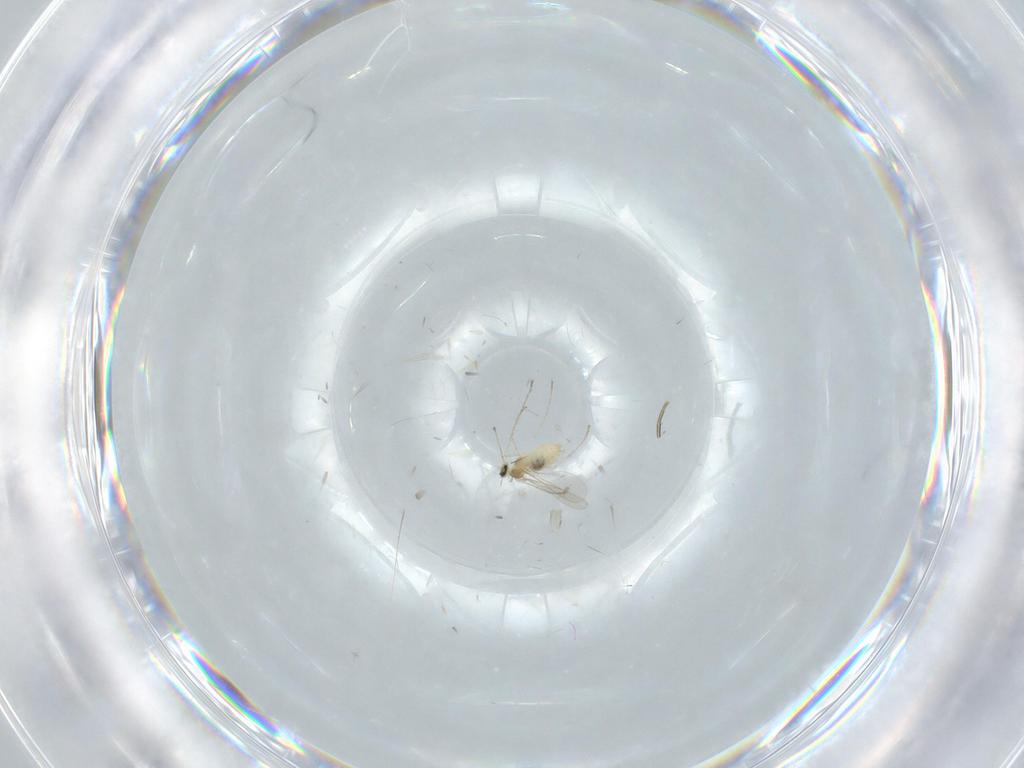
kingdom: Animalia
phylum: Arthropoda
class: Insecta
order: Diptera
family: Cecidomyiidae
